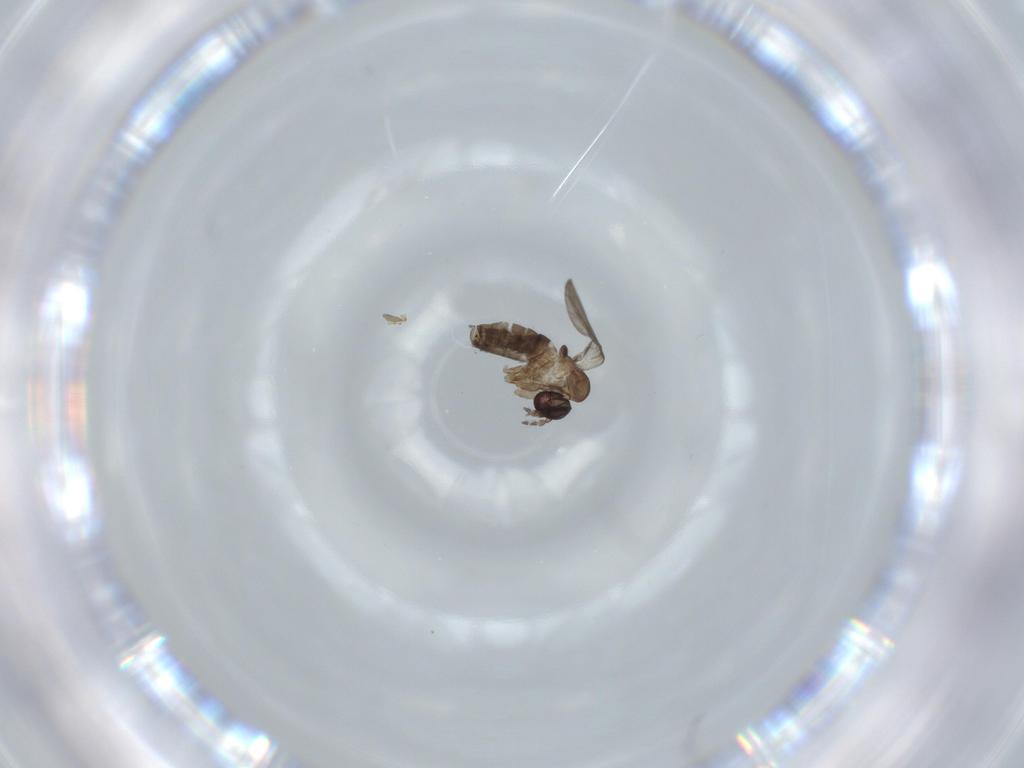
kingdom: Animalia
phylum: Arthropoda
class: Insecta
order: Diptera
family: Cecidomyiidae
